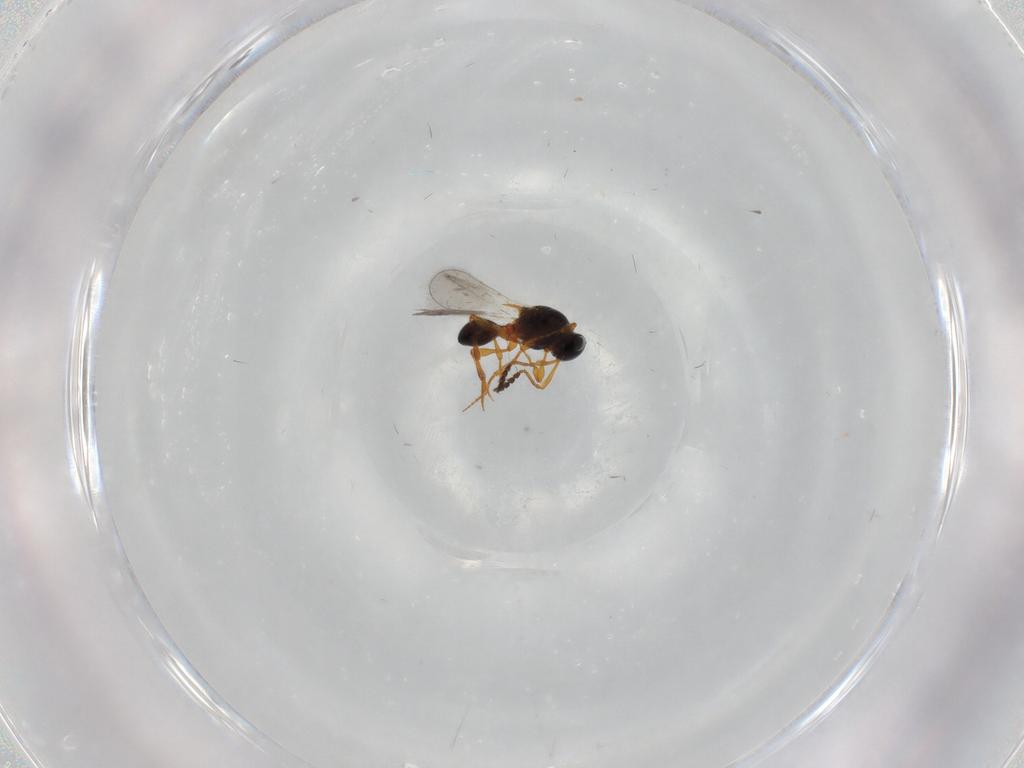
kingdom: Animalia
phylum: Arthropoda
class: Insecta
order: Hymenoptera
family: Platygastridae
